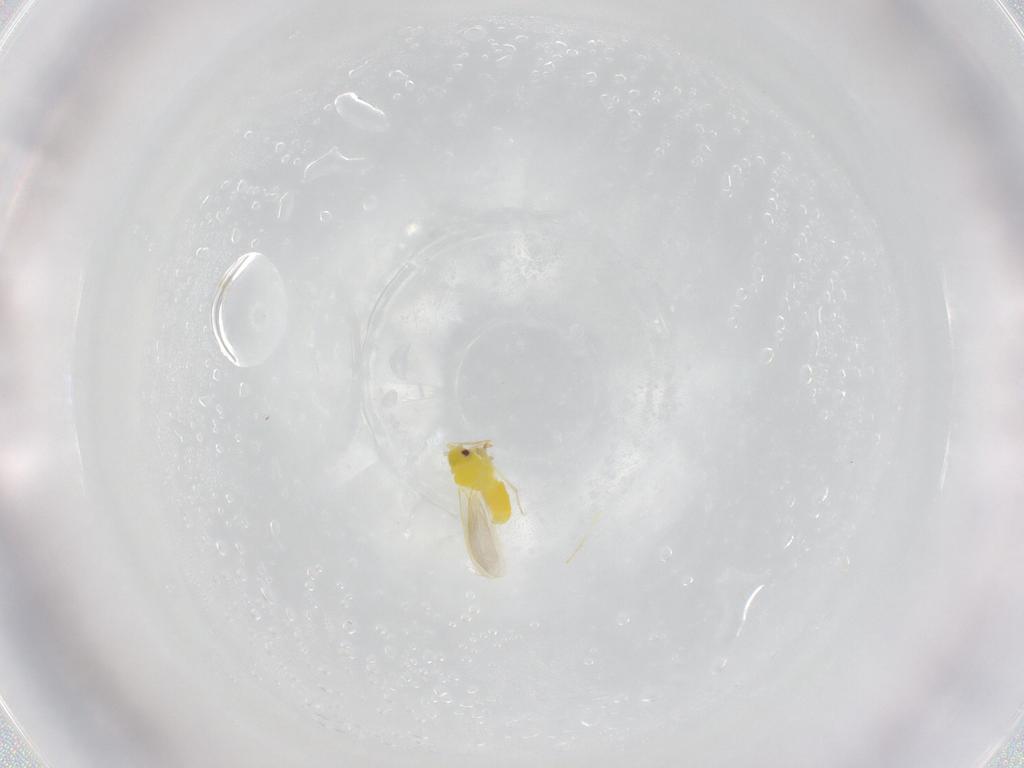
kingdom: Animalia
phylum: Arthropoda
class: Insecta
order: Hemiptera
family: Aleyrodidae
